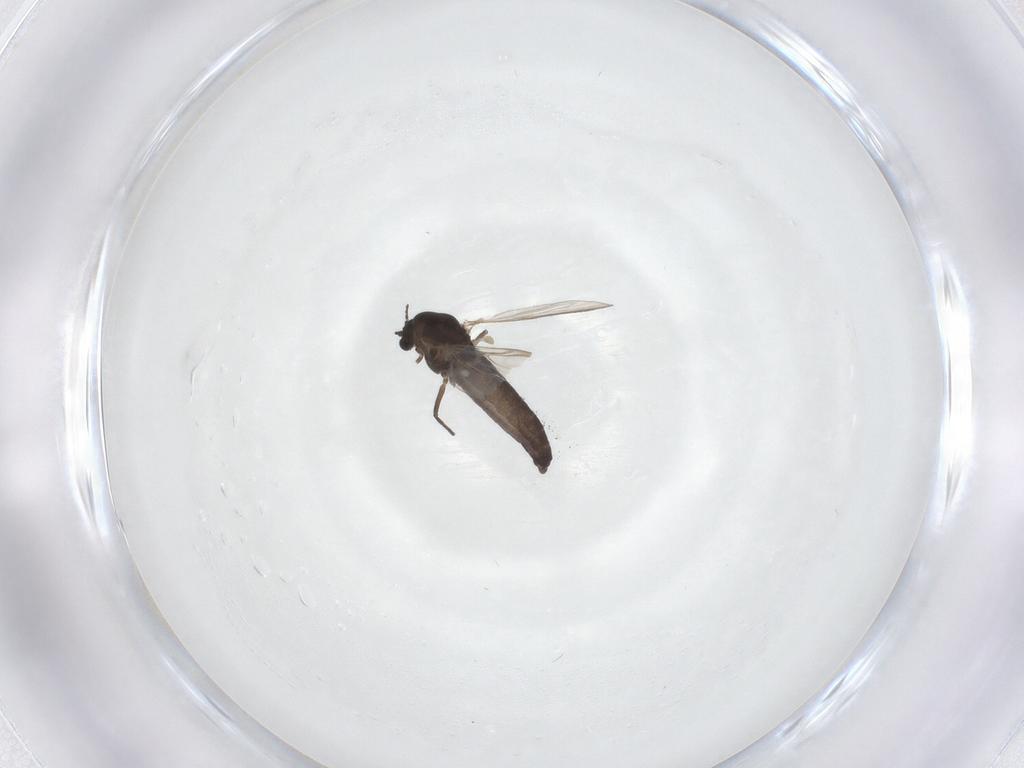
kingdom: Animalia
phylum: Arthropoda
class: Insecta
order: Diptera
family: Chironomidae
